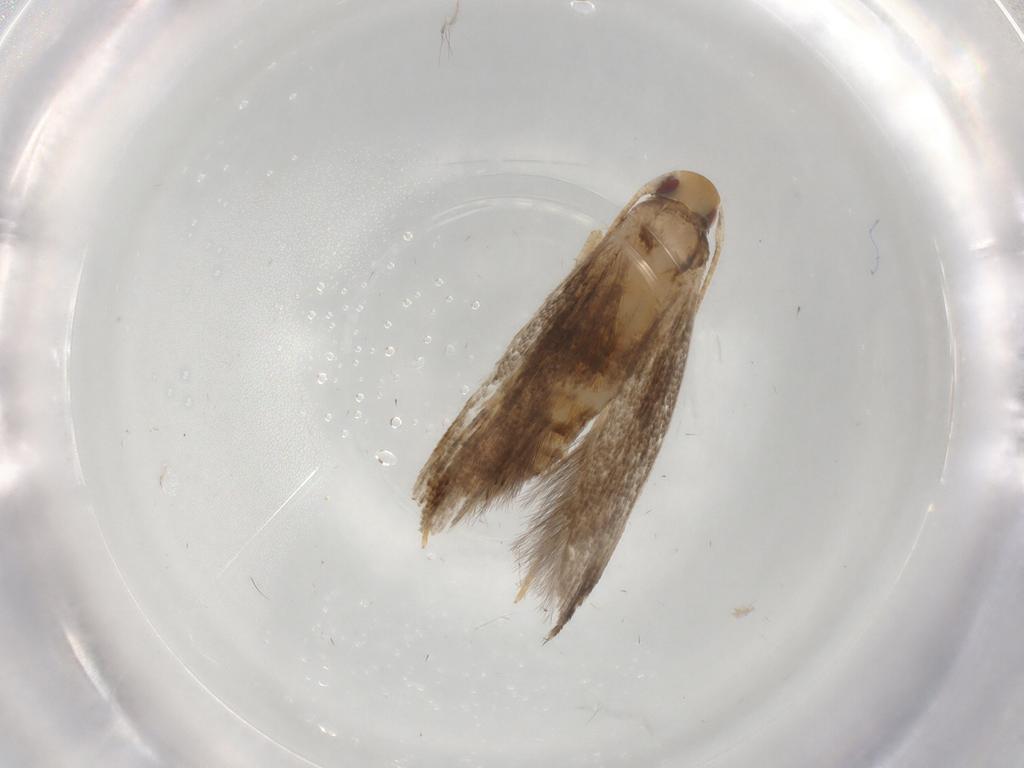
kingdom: Animalia
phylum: Arthropoda
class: Insecta
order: Lepidoptera
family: Momphidae
